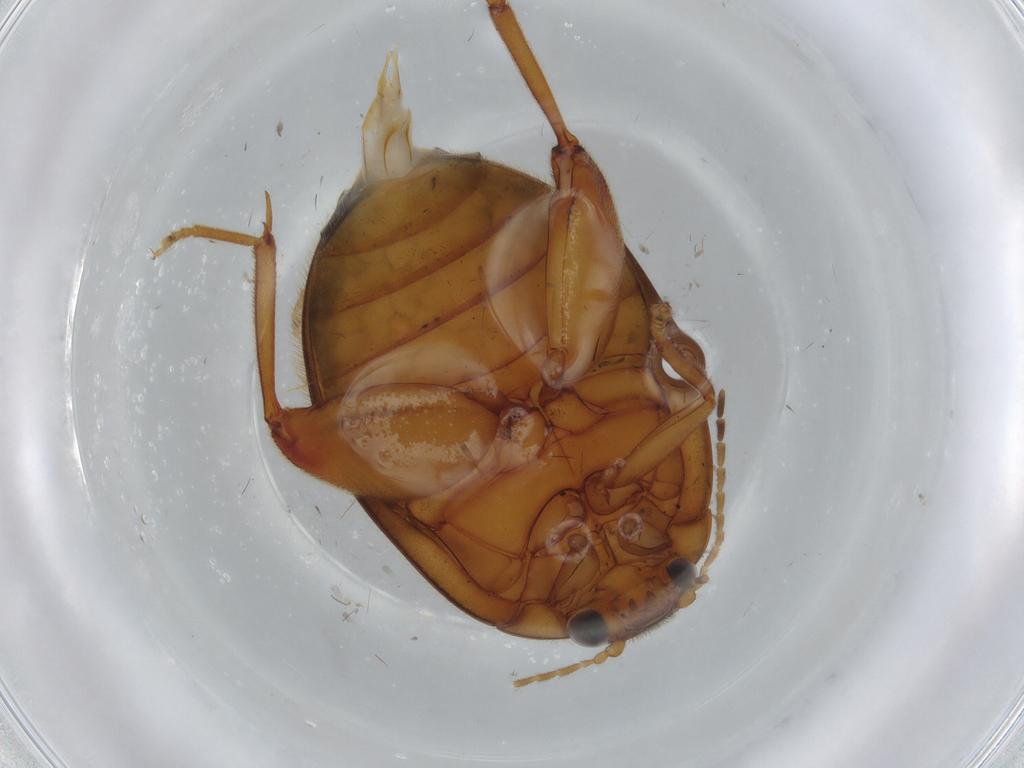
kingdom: Animalia
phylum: Arthropoda
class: Insecta
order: Coleoptera
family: Scirtidae
